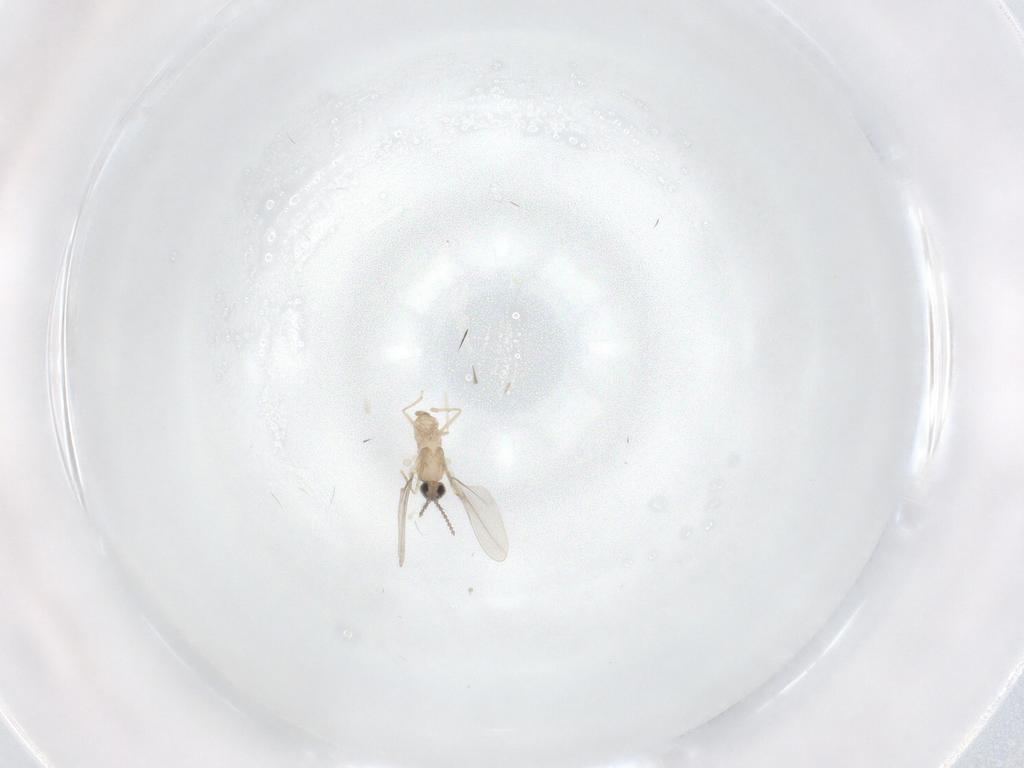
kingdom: Animalia
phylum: Arthropoda
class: Insecta
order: Diptera
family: Cecidomyiidae
